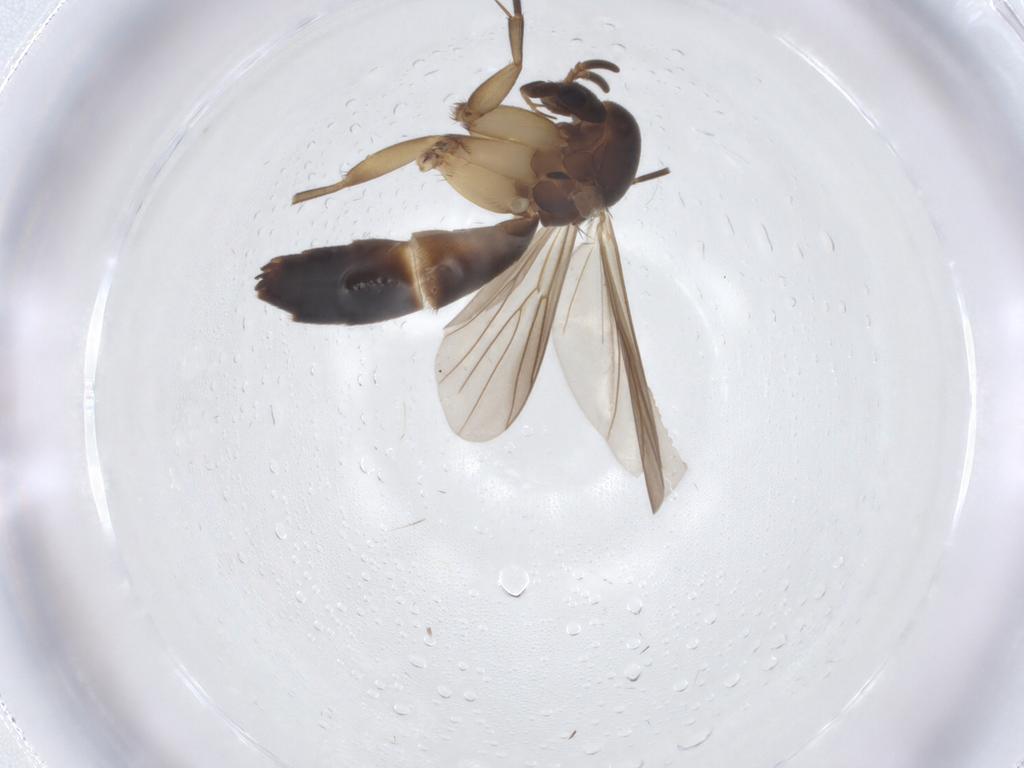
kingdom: Animalia
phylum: Arthropoda
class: Insecta
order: Diptera
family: Mycetophilidae
